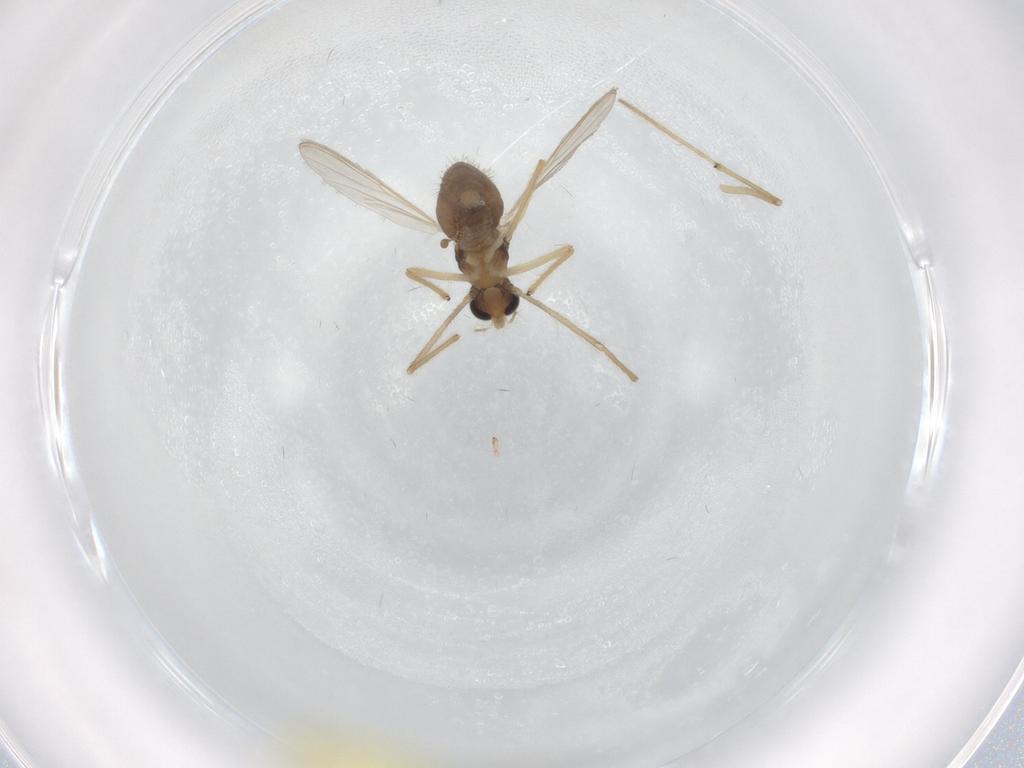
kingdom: Animalia
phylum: Arthropoda
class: Insecta
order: Diptera
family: Chironomidae
